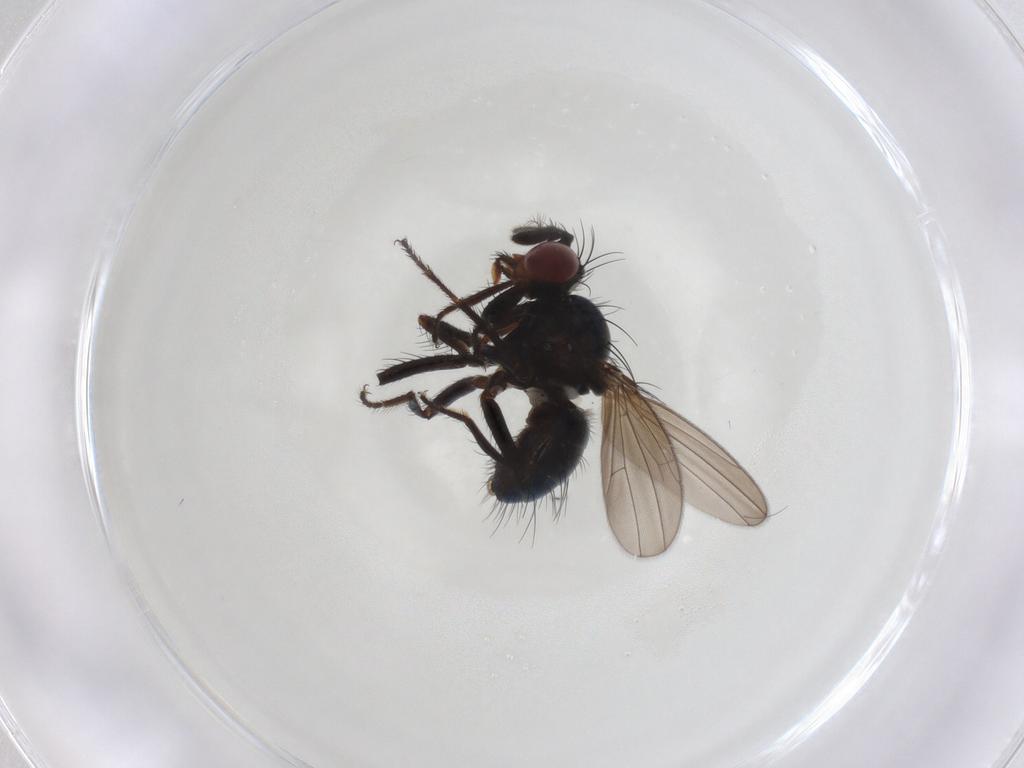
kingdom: Animalia
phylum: Arthropoda
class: Insecta
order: Diptera
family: Ephydridae
